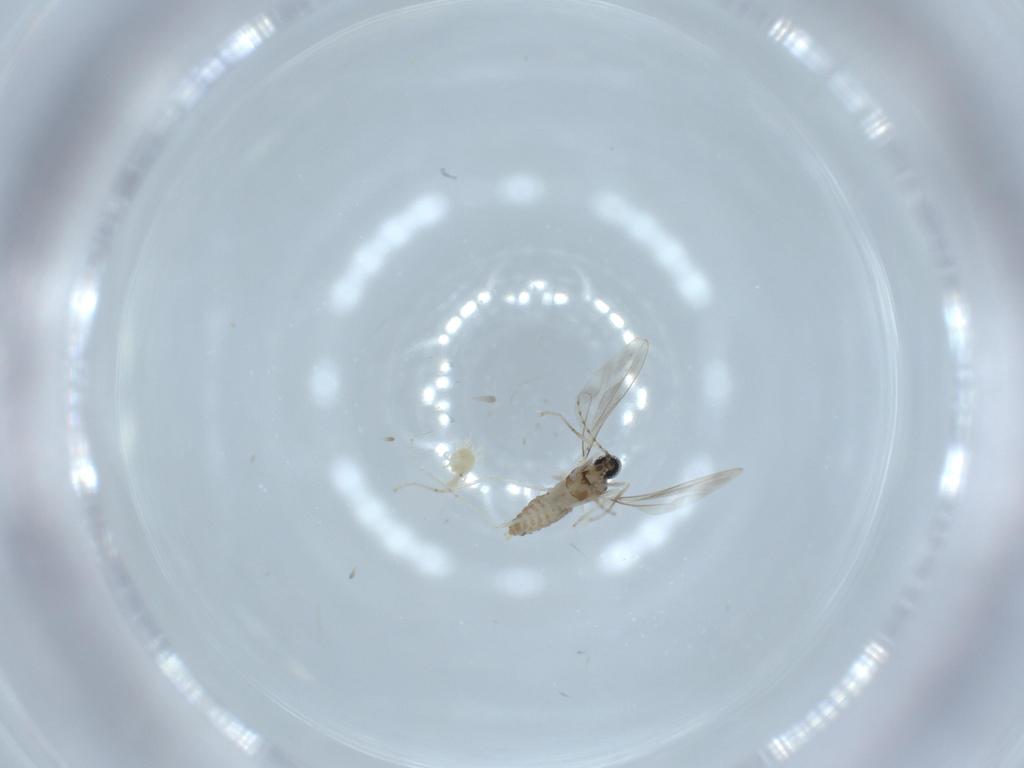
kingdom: Animalia
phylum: Arthropoda
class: Insecta
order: Diptera
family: Cecidomyiidae
